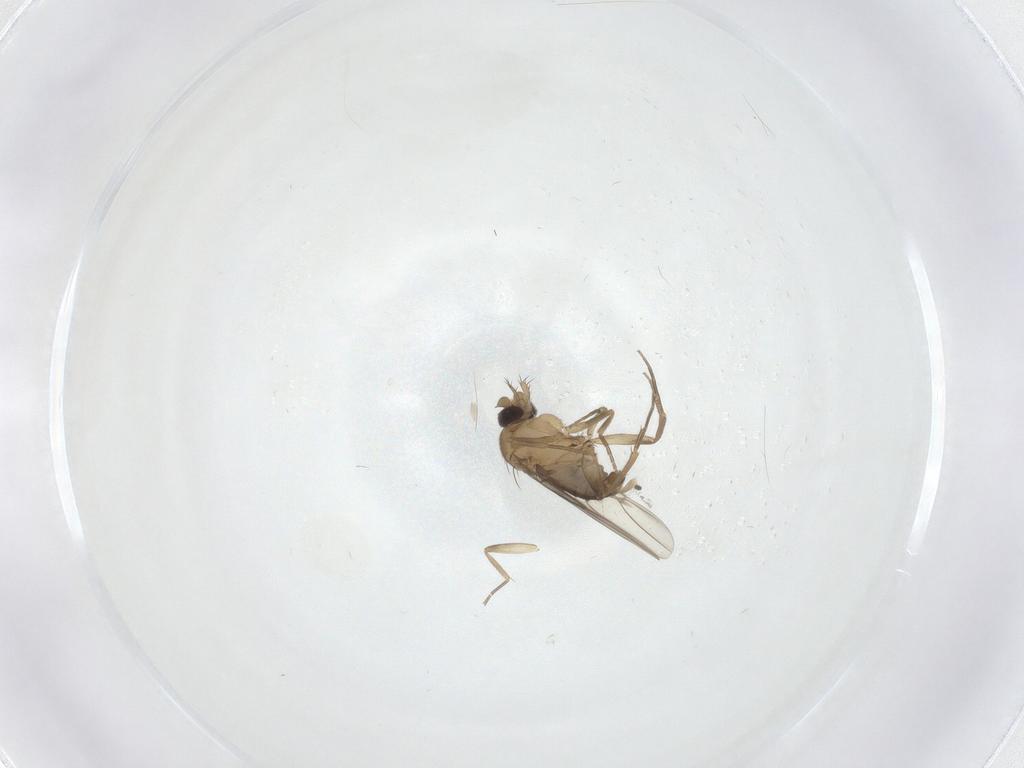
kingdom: Animalia
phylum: Arthropoda
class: Insecta
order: Diptera
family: Phoridae
